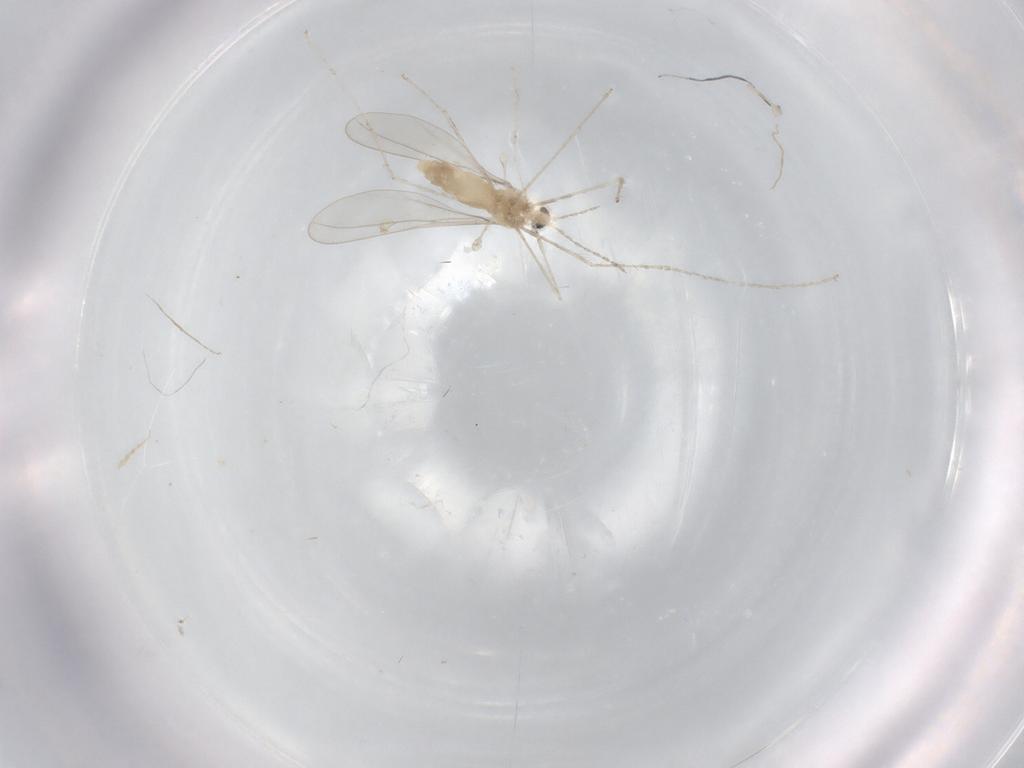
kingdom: Animalia
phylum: Arthropoda
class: Insecta
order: Diptera
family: Cecidomyiidae
